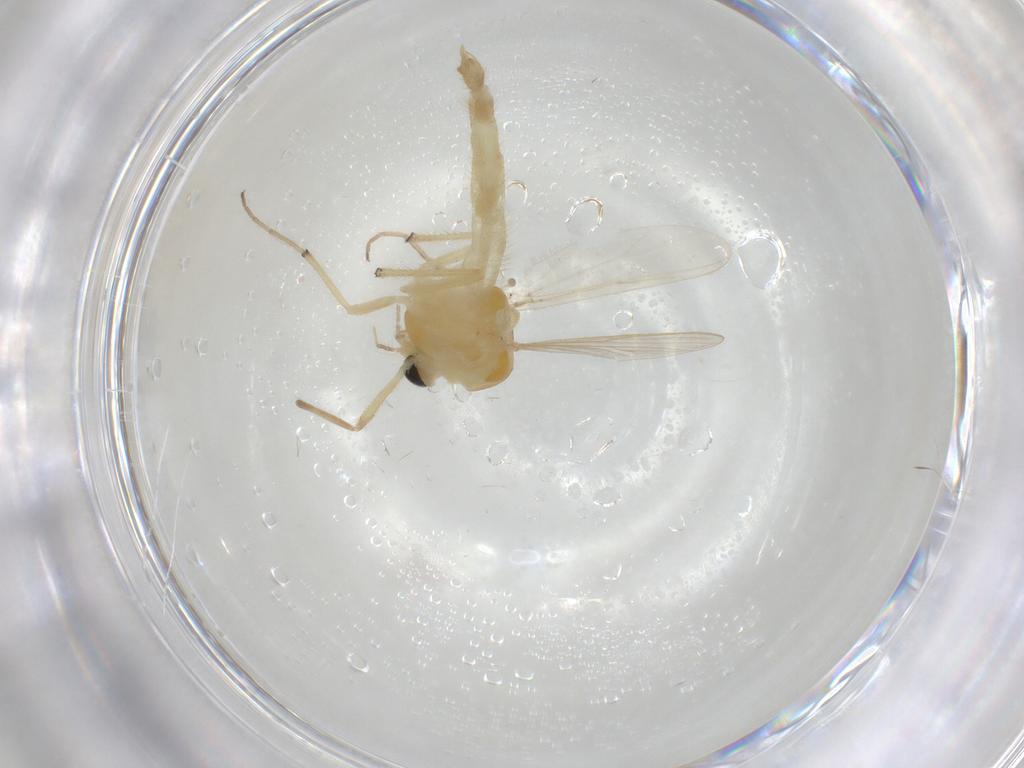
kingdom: Animalia
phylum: Arthropoda
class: Insecta
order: Diptera
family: Chironomidae
